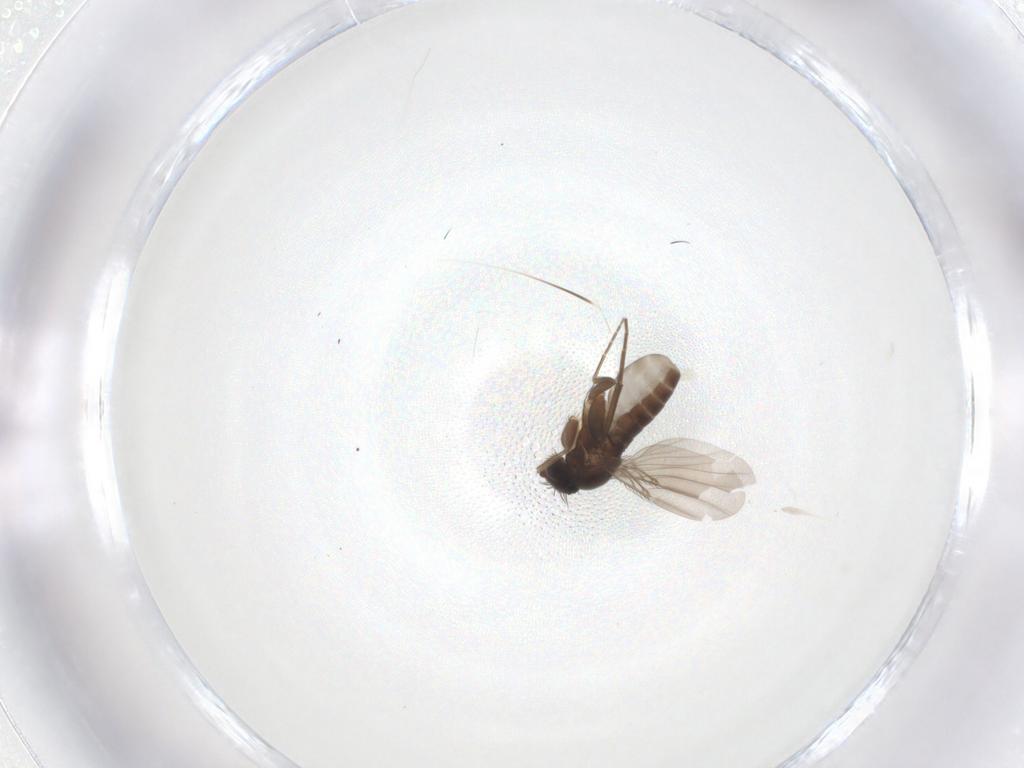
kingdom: Animalia
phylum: Arthropoda
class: Insecta
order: Diptera
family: Phoridae
